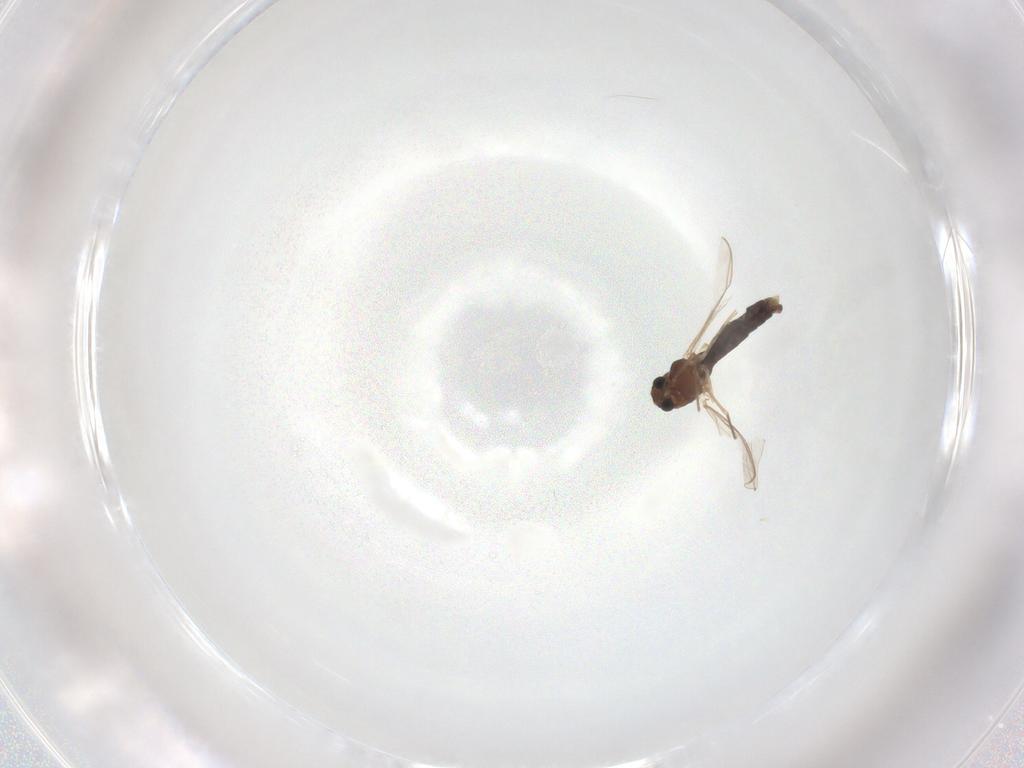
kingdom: Animalia
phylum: Arthropoda
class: Insecta
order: Diptera
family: Chironomidae
